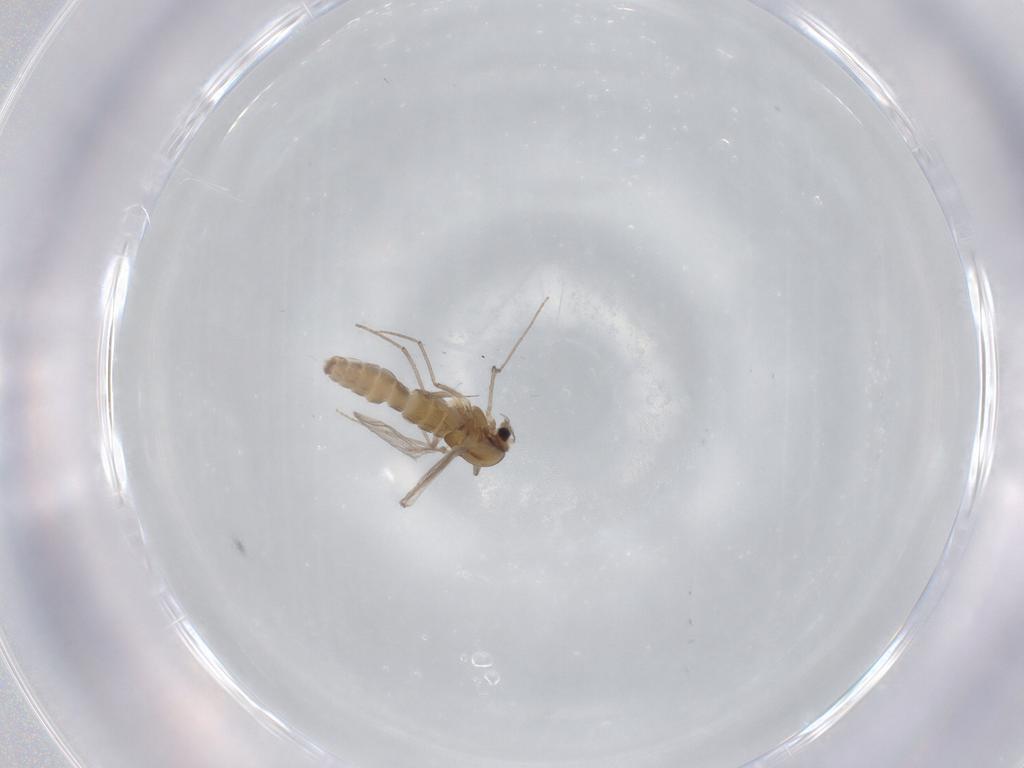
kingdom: Animalia
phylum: Arthropoda
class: Insecta
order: Diptera
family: Chironomidae
